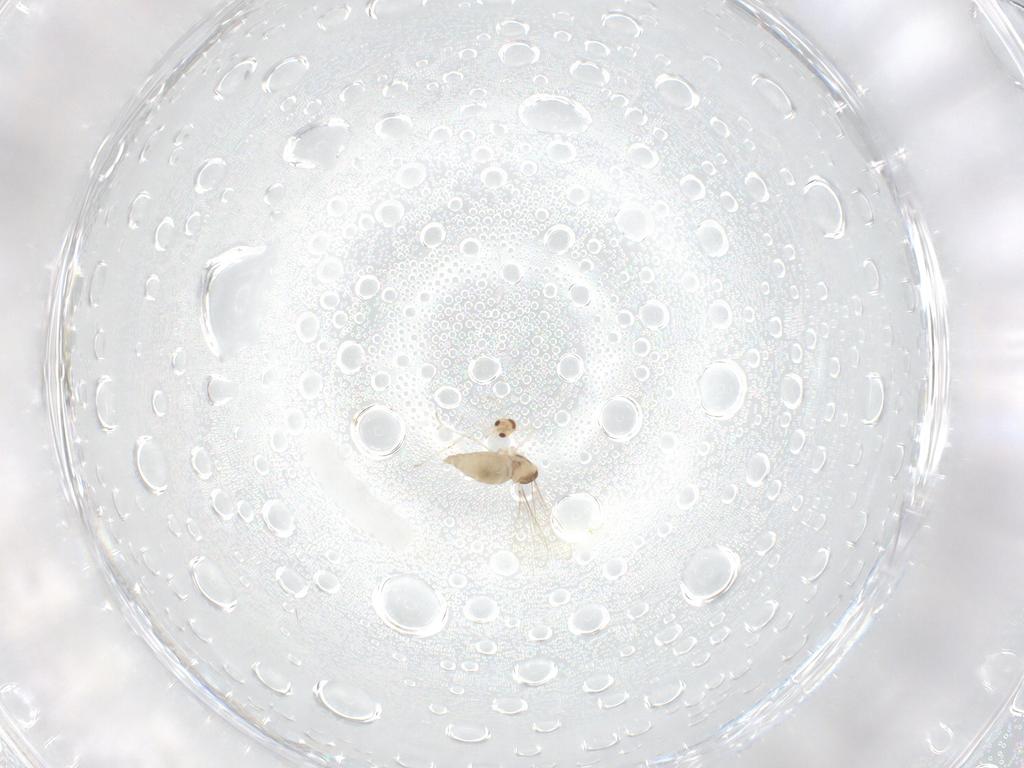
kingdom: Animalia
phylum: Arthropoda
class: Insecta
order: Diptera
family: Cecidomyiidae
